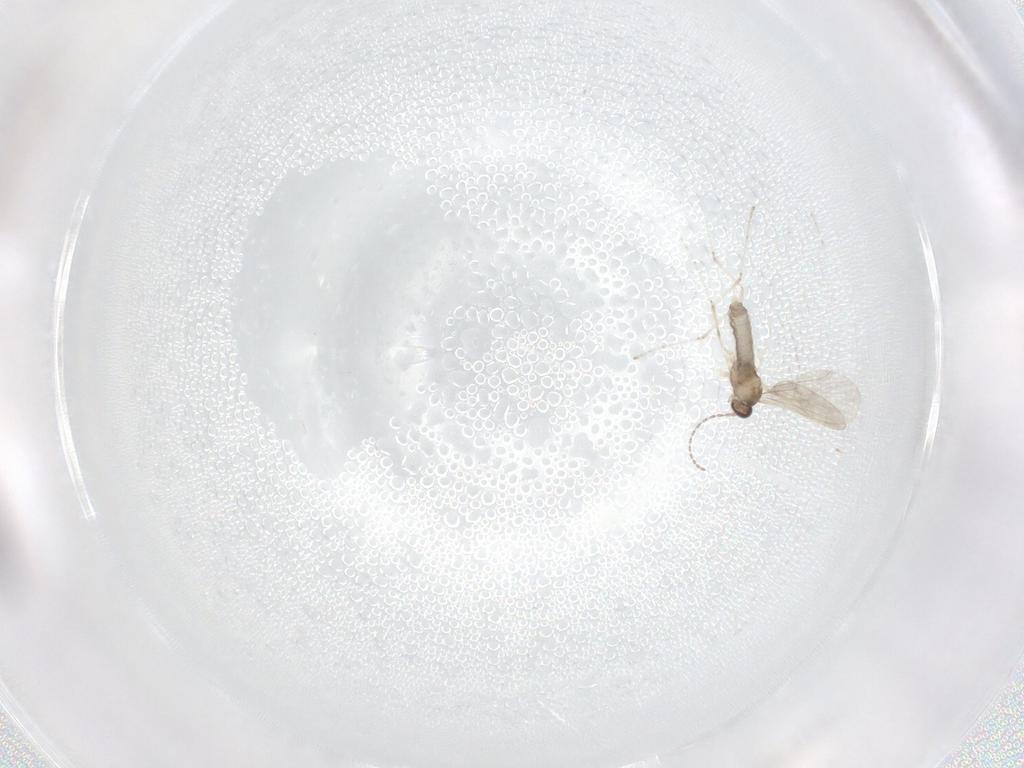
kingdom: Animalia
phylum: Arthropoda
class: Insecta
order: Diptera
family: Cecidomyiidae
